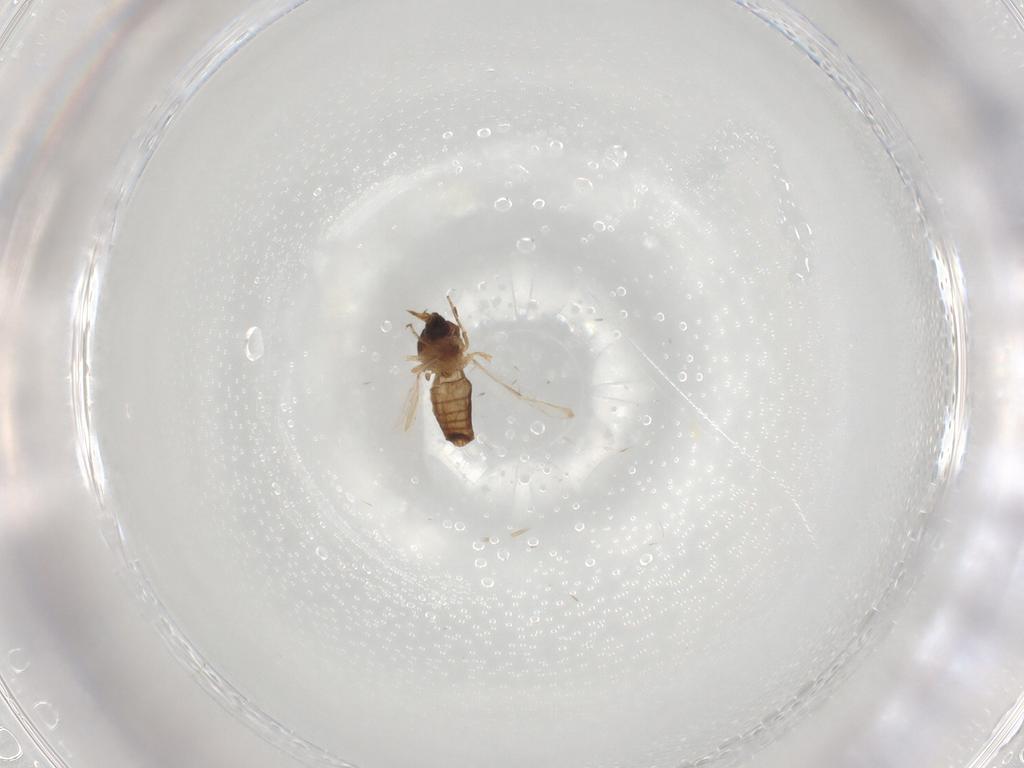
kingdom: Animalia
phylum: Arthropoda
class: Insecta
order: Diptera
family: Ceratopogonidae
